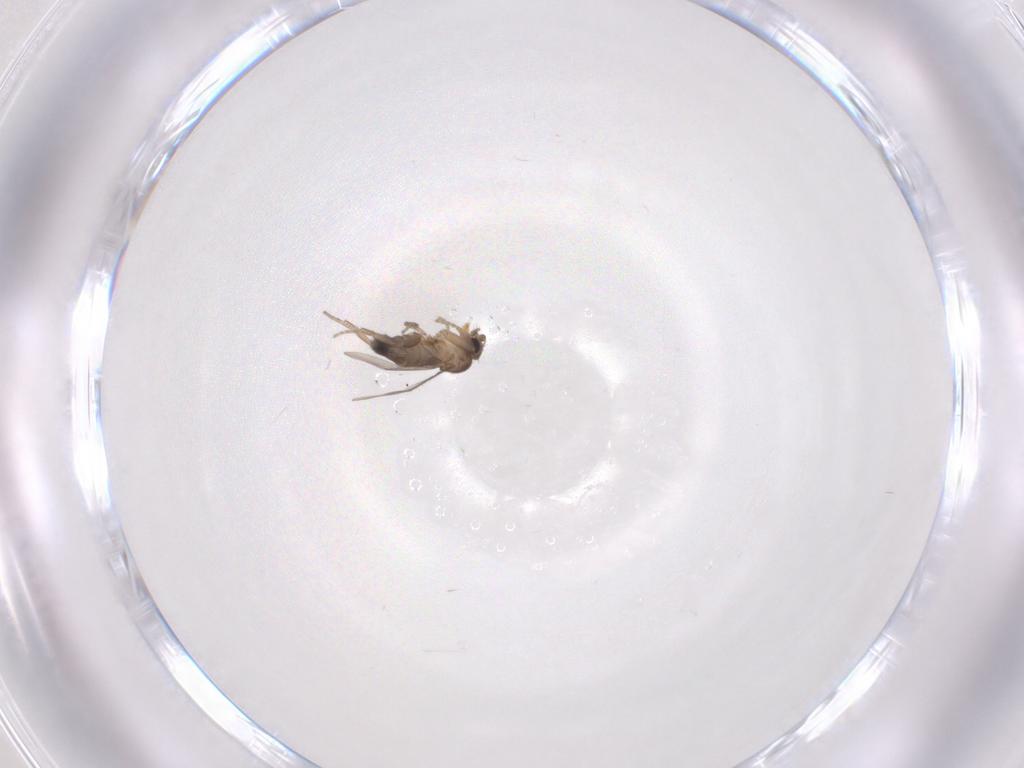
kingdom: Animalia
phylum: Arthropoda
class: Insecta
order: Diptera
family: Phoridae
